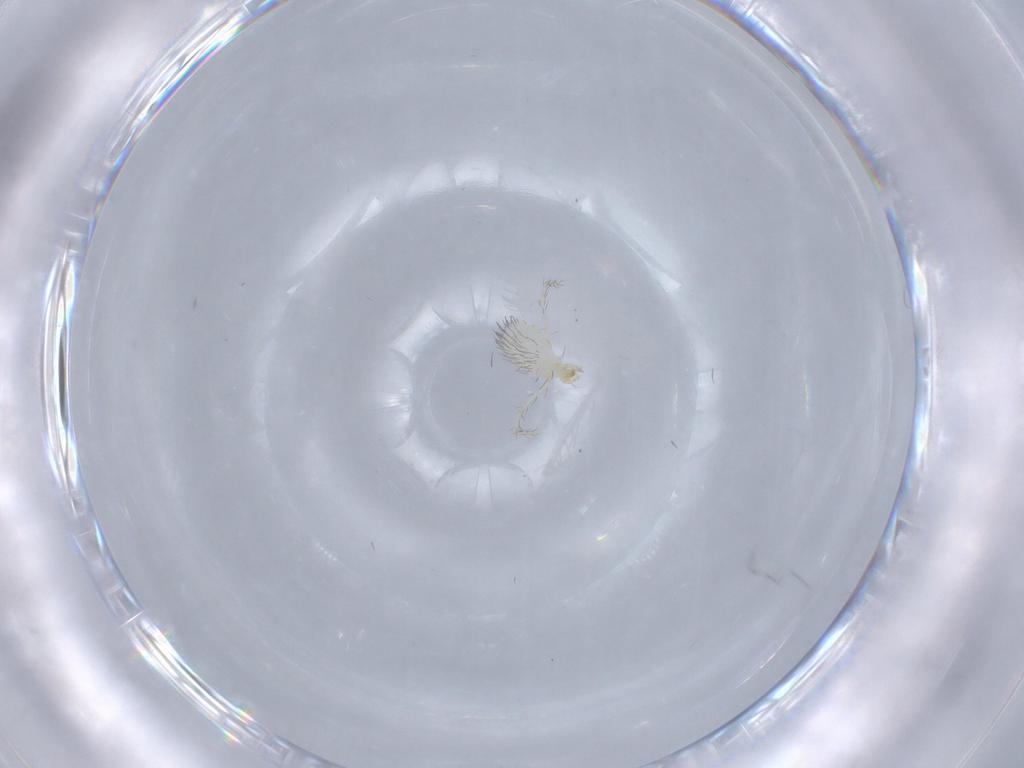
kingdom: Animalia
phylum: Arthropoda
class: Arachnida
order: Trombidiformes
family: Erythraeidae
